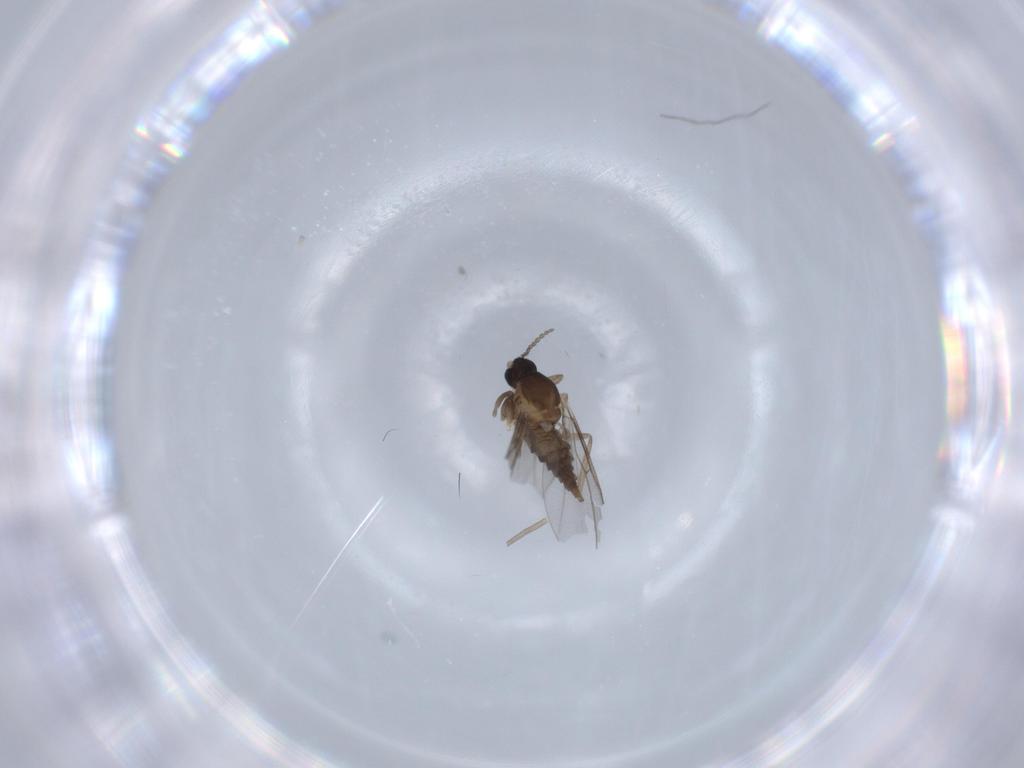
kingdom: Animalia
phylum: Arthropoda
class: Insecta
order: Diptera
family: Cecidomyiidae
